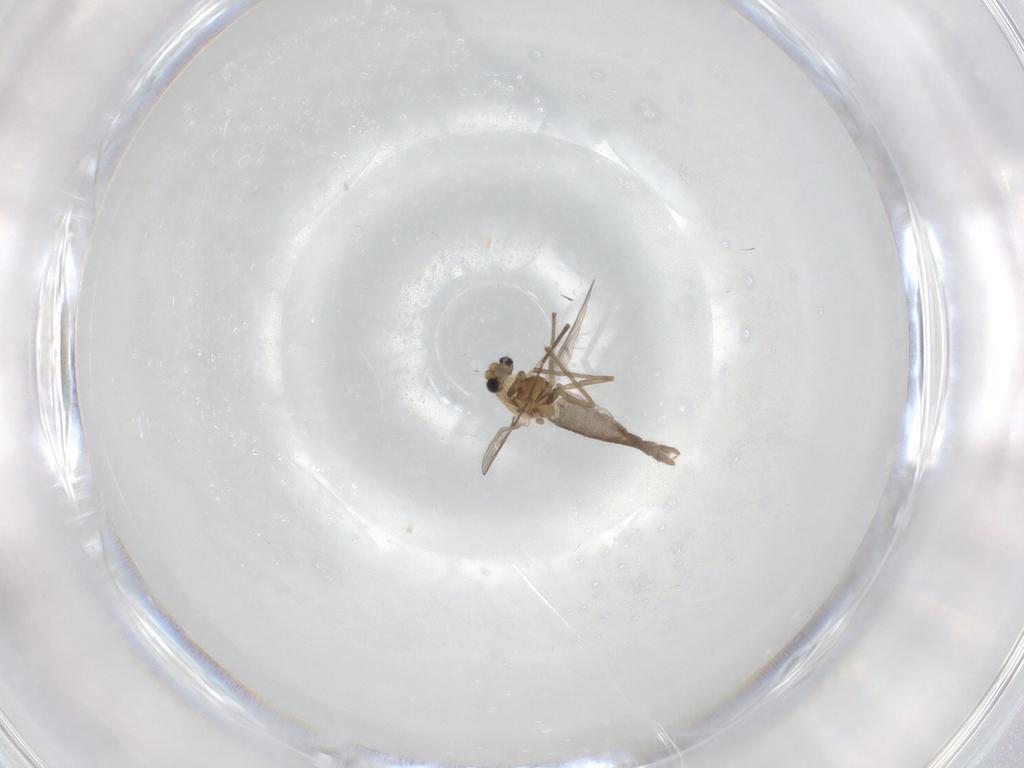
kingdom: Animalia
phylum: Arthropoda
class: Insecta
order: Diptera
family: Chironomidae
